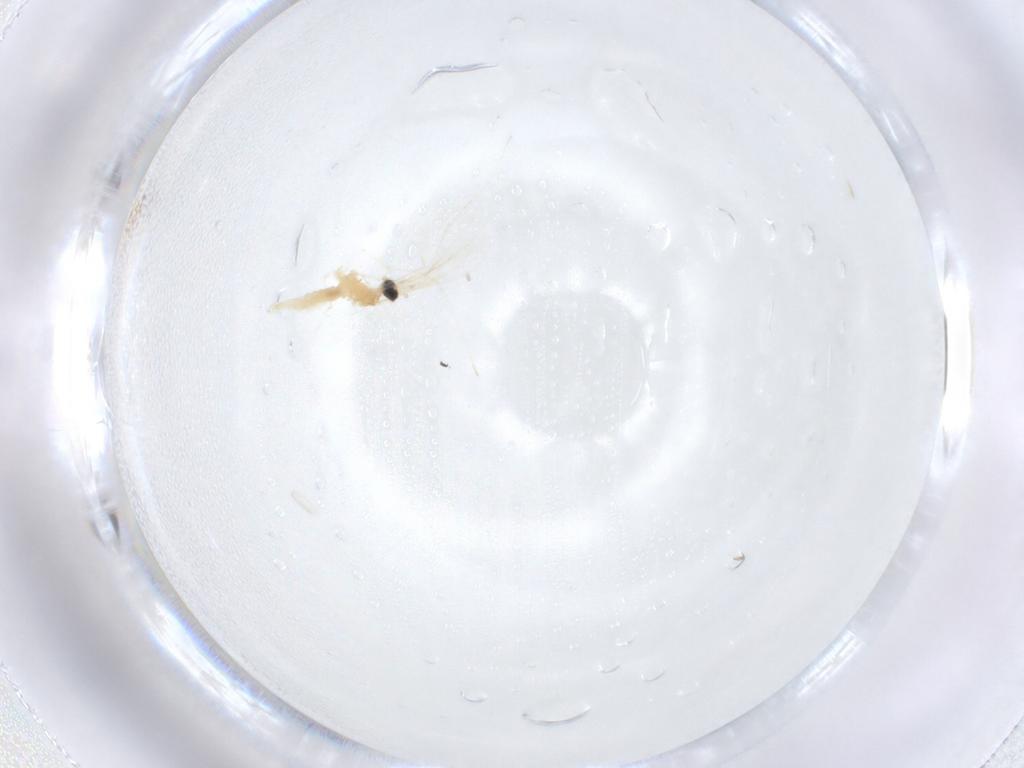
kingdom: Animalia
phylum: Arthropoda
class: Insecta
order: Diptera
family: Cecidomyiidae
